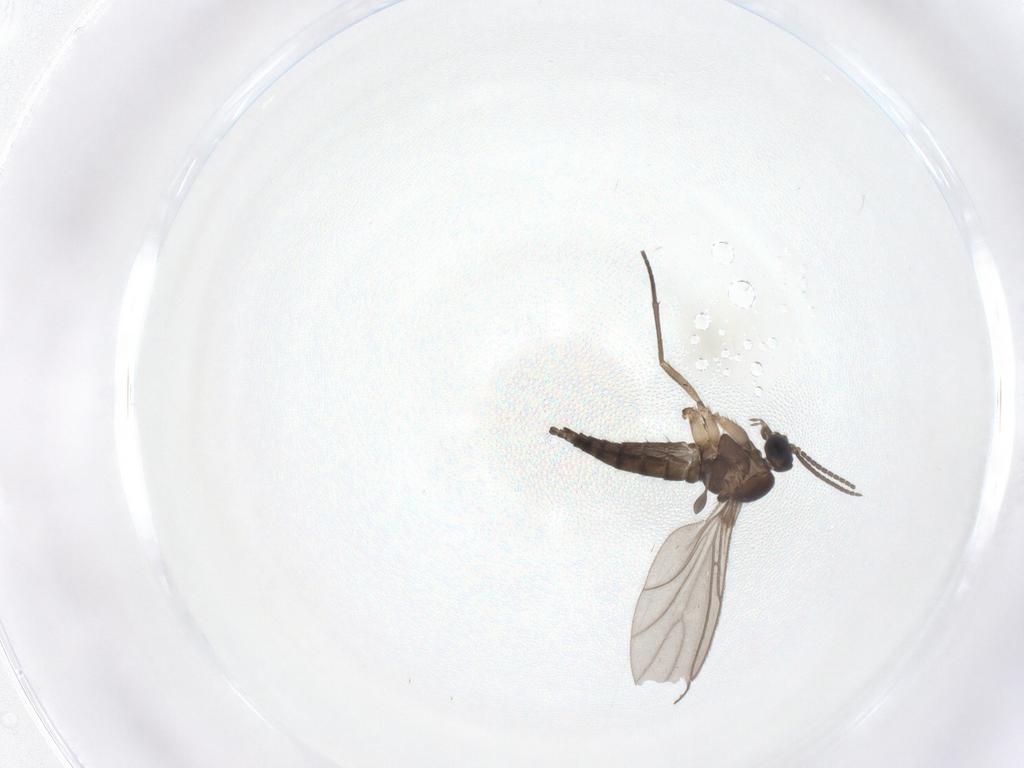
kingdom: Animalia
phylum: Arthropoda
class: Insecta
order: Diptera
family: Sciaridae
